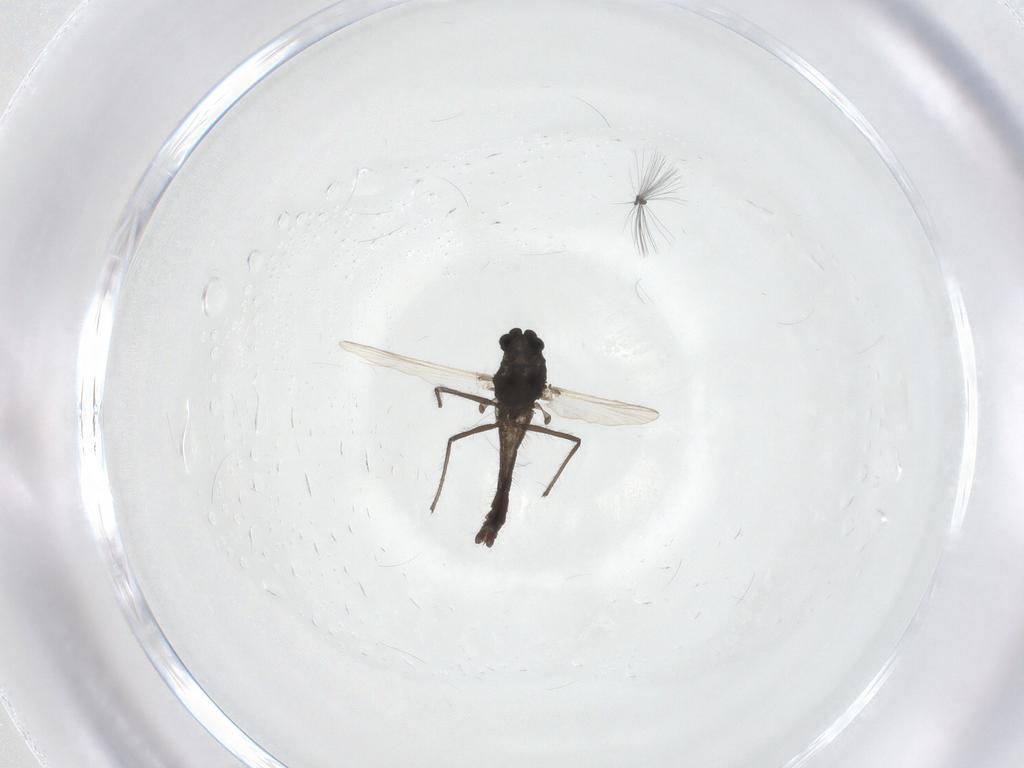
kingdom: Animalia
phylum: Arthropoda
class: Insecta
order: Diptera
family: Chironomidae
